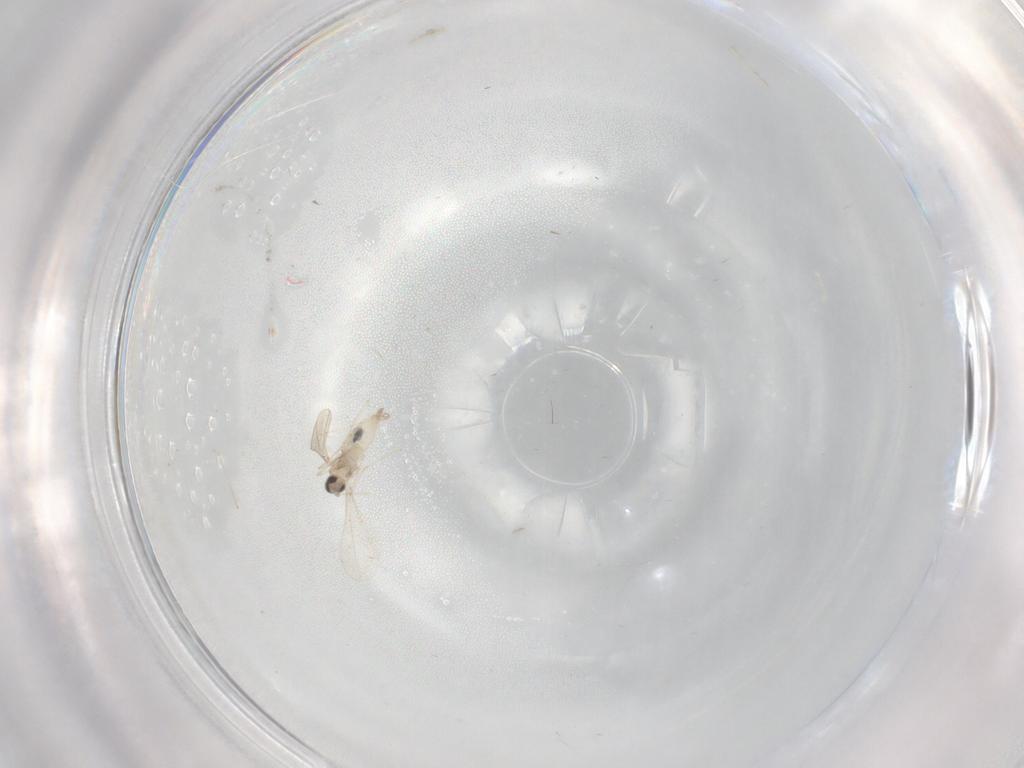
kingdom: Animalia
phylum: Arthropoda
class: Insecta
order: Diptera
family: Cecidomyiidae
